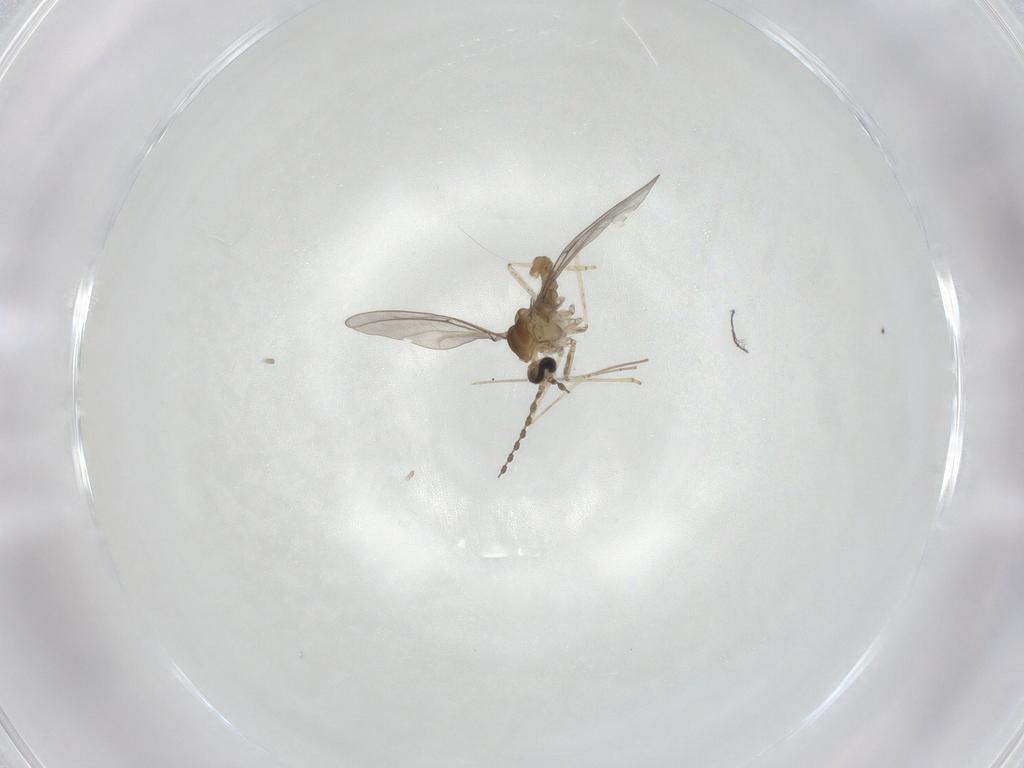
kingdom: Animalia
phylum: Arthropoda
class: Insecta
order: Diptera
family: Cecidomyiidae
